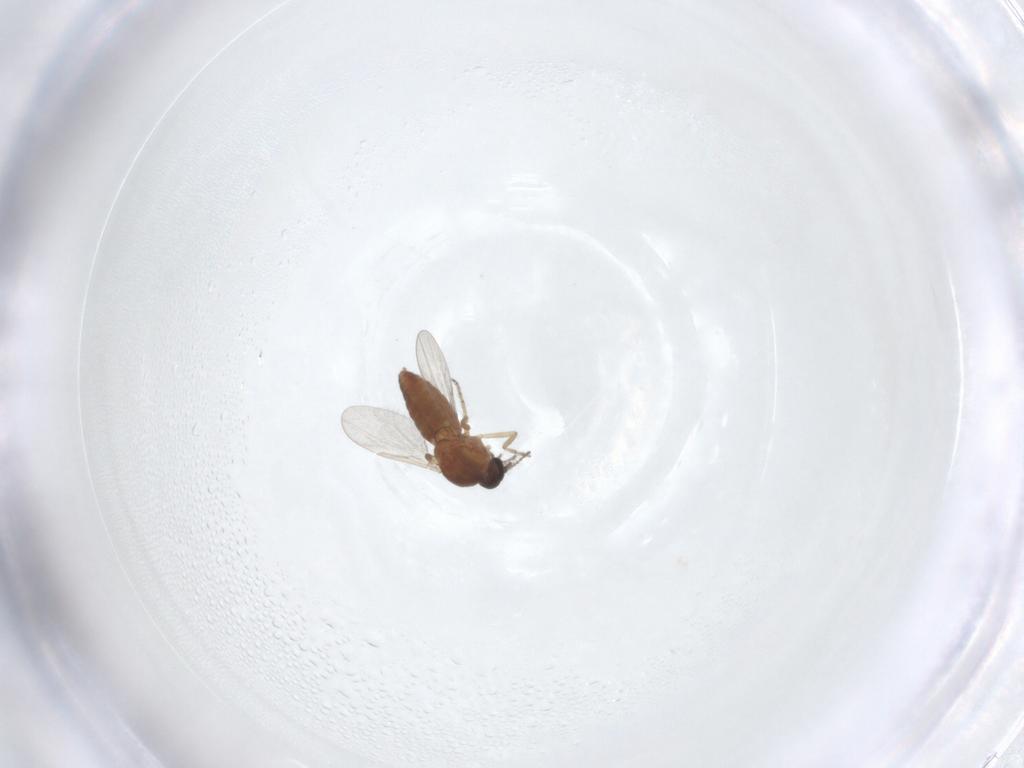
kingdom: Animalia
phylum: Arthropoda
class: Insecta
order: Diptera
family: Ceratopogonidae
